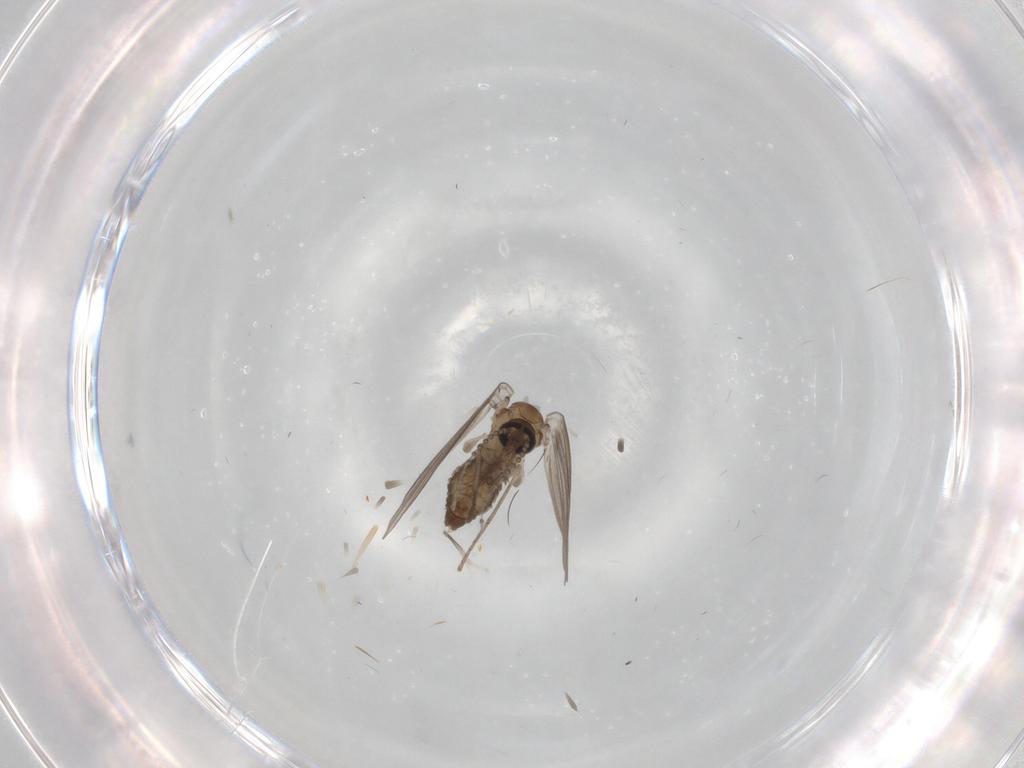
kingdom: Animalia
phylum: Arthropoda
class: Insecta
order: Diptera
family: Psychodidae
